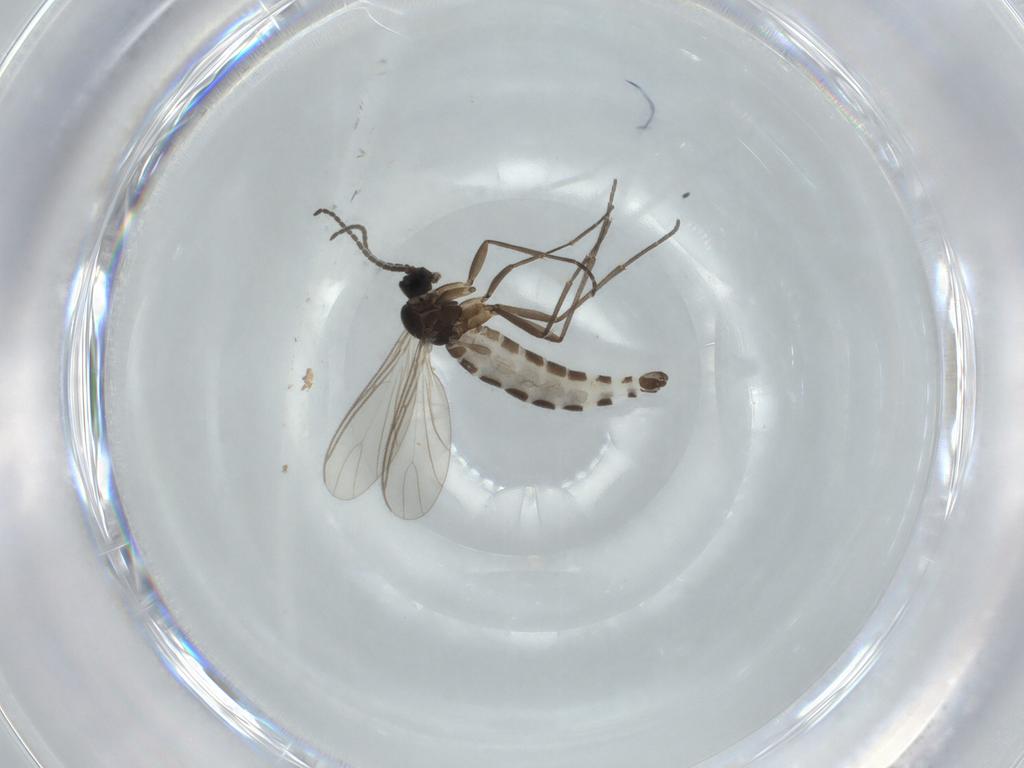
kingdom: Animalia
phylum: Arthropoda
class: Insecta
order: Diptera
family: Sciaridae
